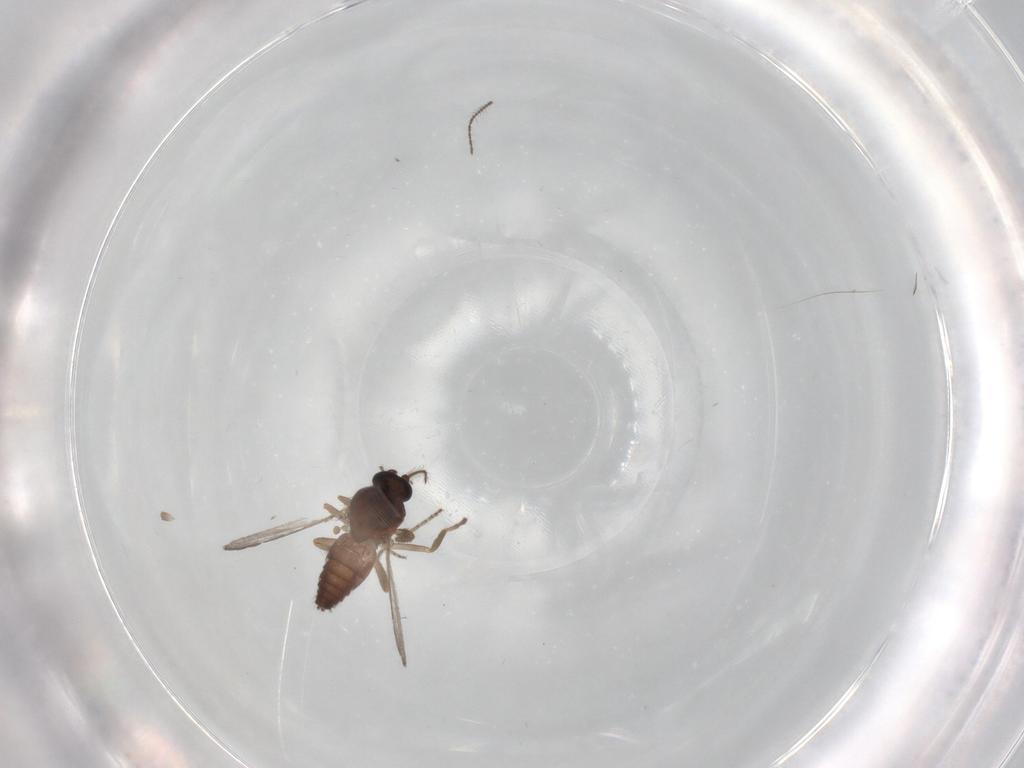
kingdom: Animalia
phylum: Arthropoda
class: Insecta
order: Diptera
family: Ceratopogonidae
